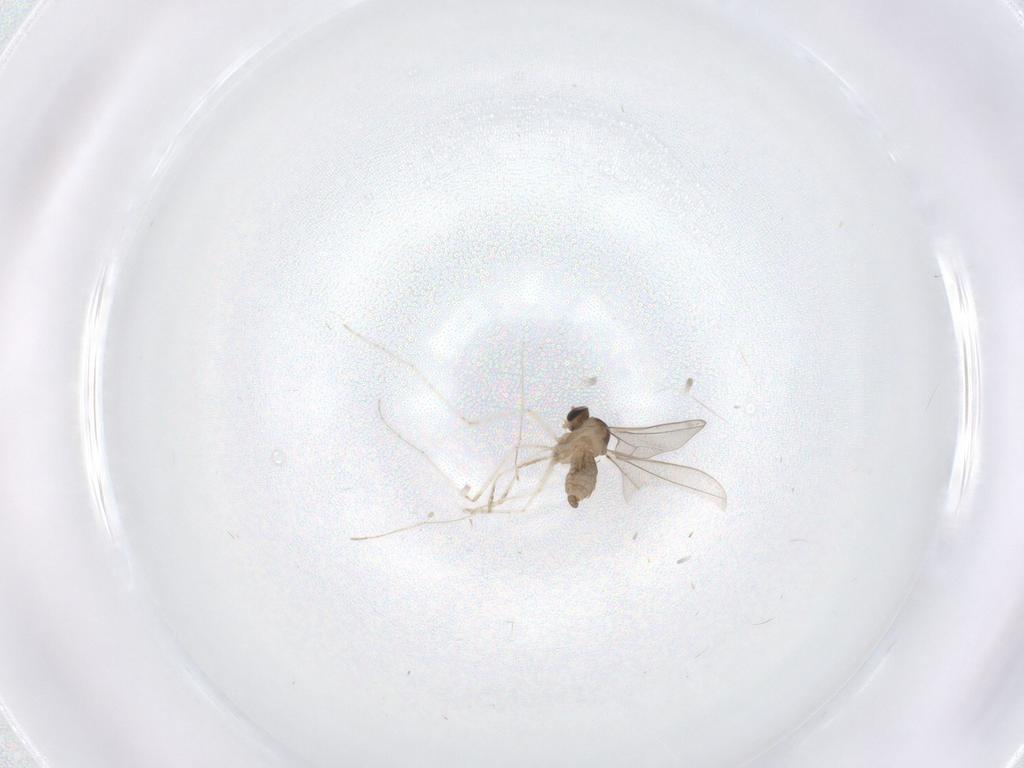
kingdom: Animalia
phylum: Arthropoda
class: Insecta
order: Diptera
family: Cecidomyiidae
